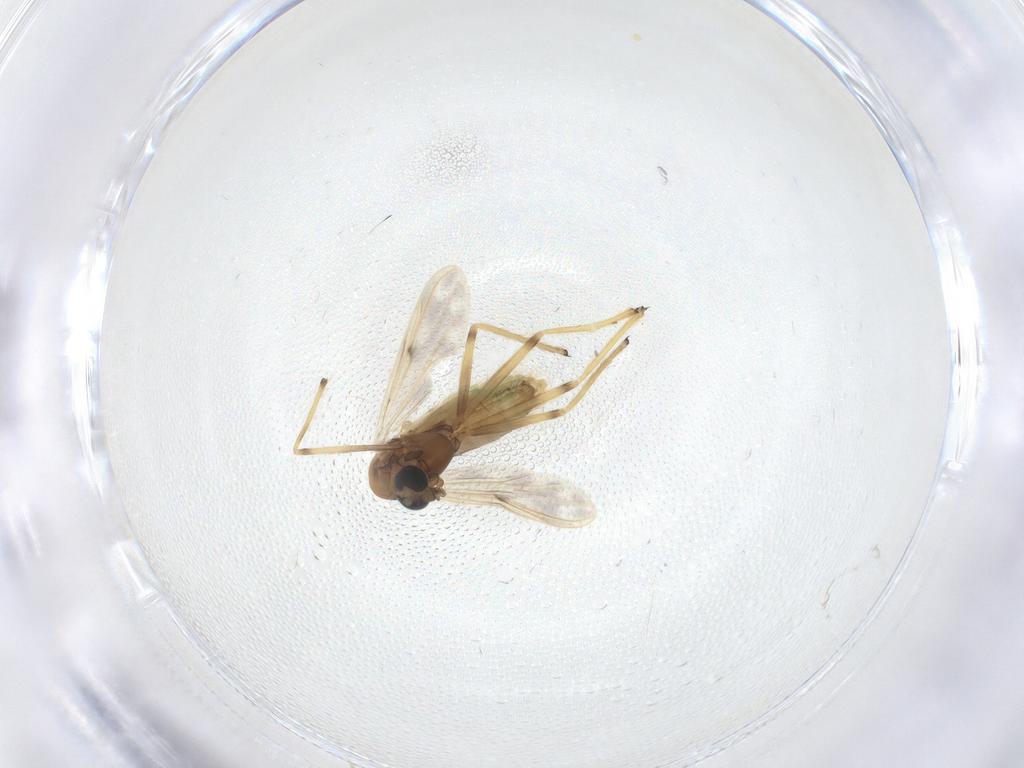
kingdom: Animalia
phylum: Arthropoda
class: Insecta
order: Diptera
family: Chironomidae
